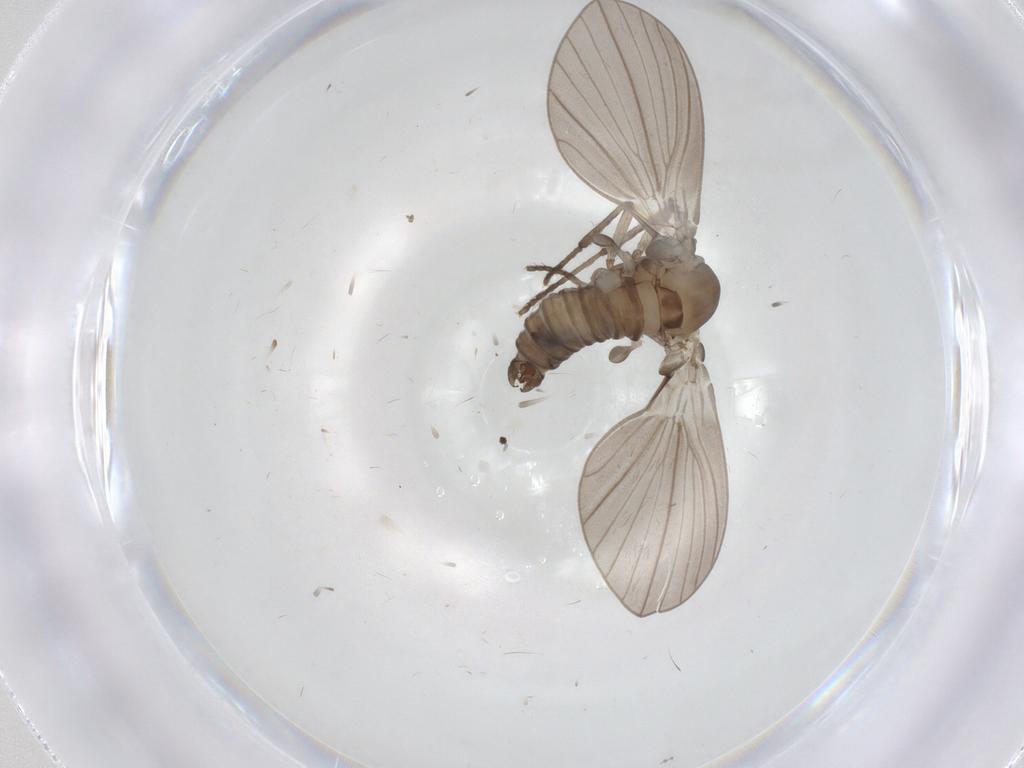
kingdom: Animalia
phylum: Arthropoda
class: Insecta
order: Diptera
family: Psychodidae
